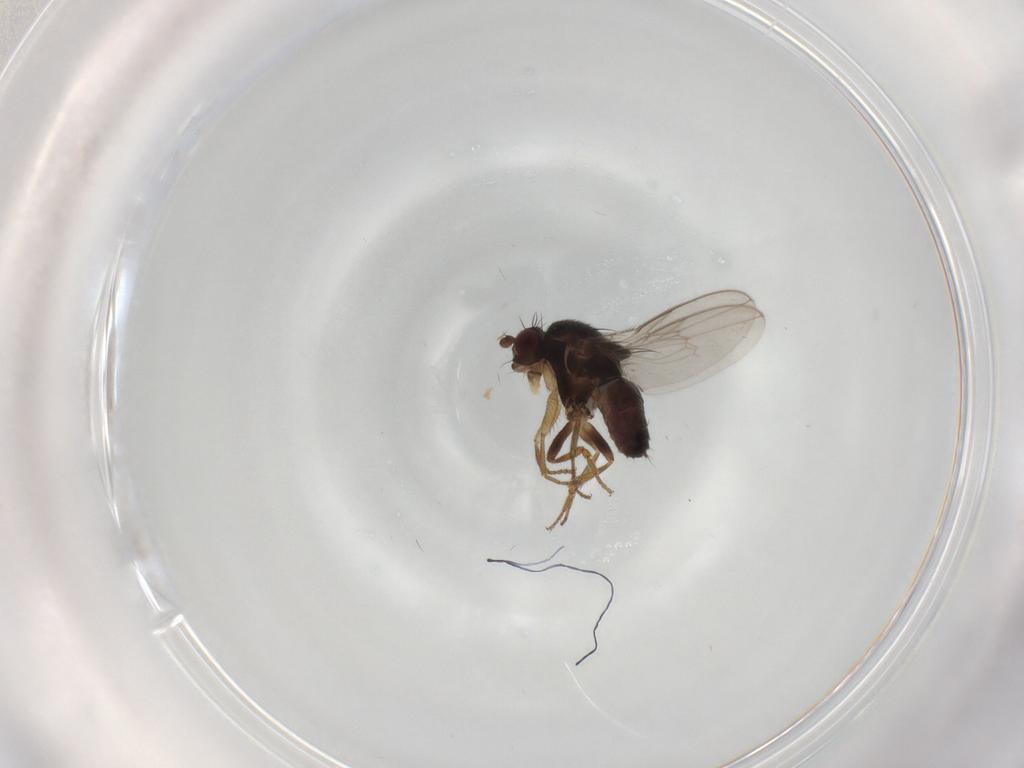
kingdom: Animalia
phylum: Arthropoda
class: Insecta
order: Diptera
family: Sphaeroceridae
